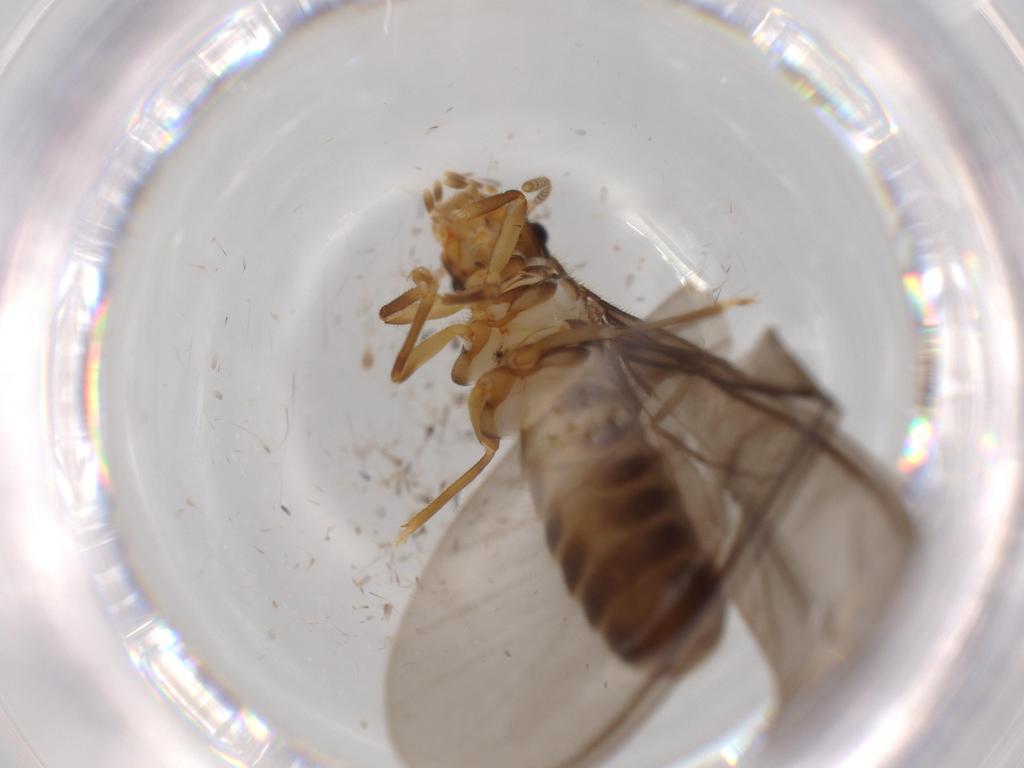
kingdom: Animalia
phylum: Arthropoda
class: Insecta
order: Blattodea
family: Termitidae
